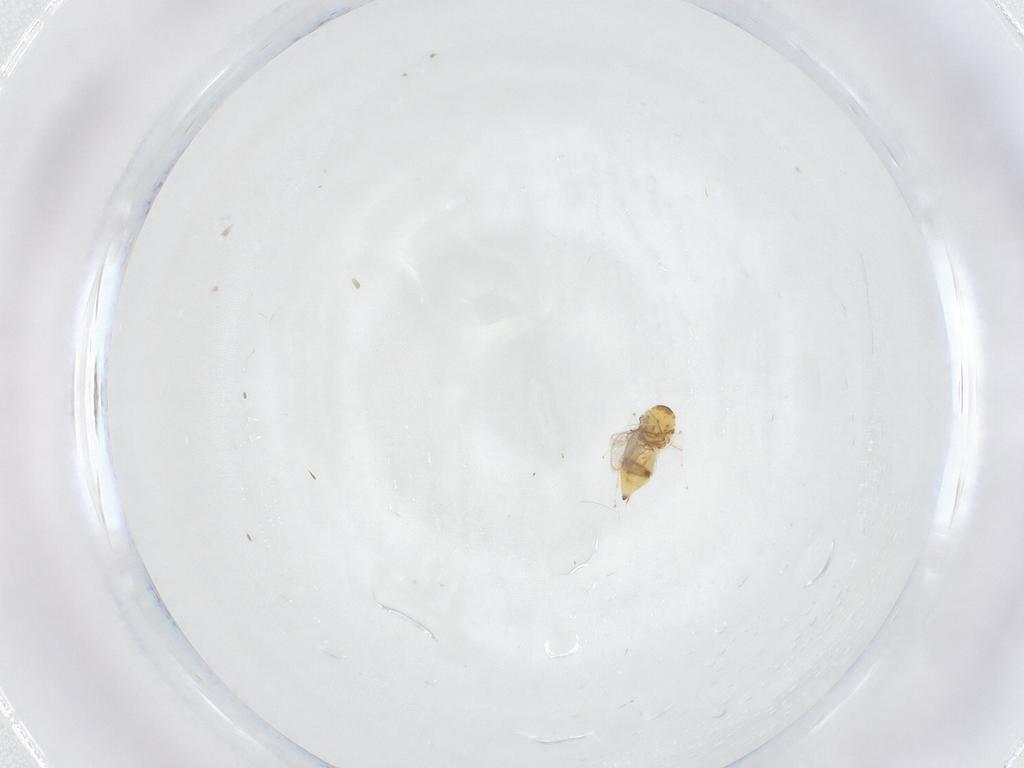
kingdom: Animalia
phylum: Arthropoda
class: Insecta
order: Hymenoptera
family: Eulophidae
